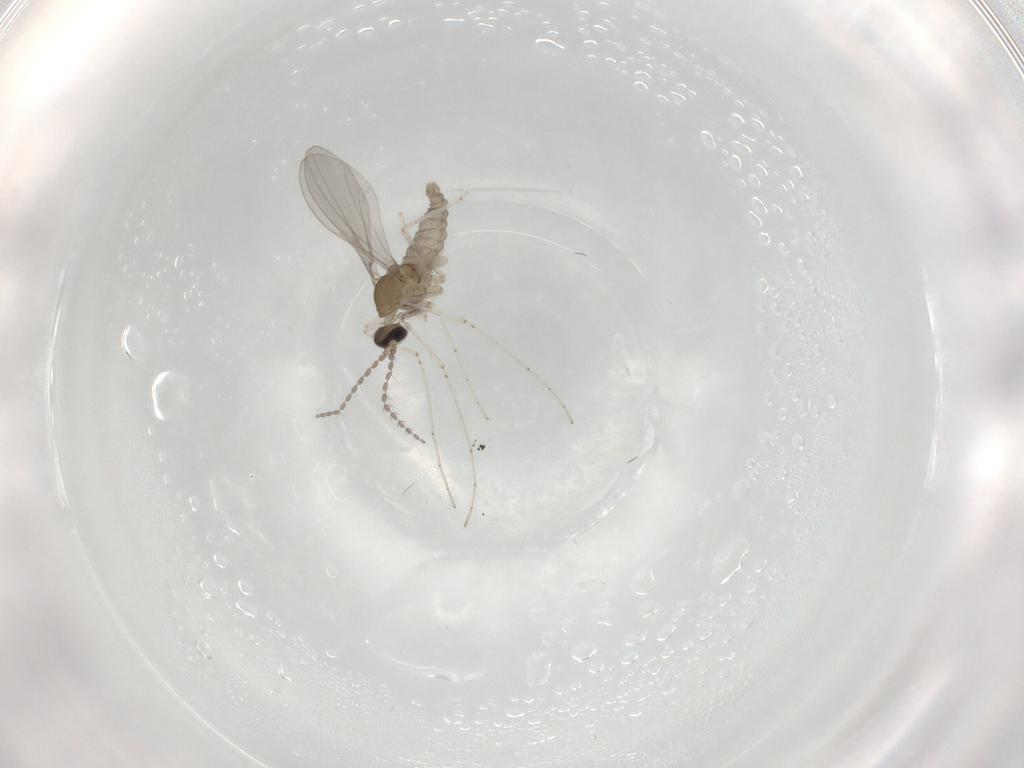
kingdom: Animalia
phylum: Arthropoda
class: Insecta
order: Diptera
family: Cecidomyiidae
